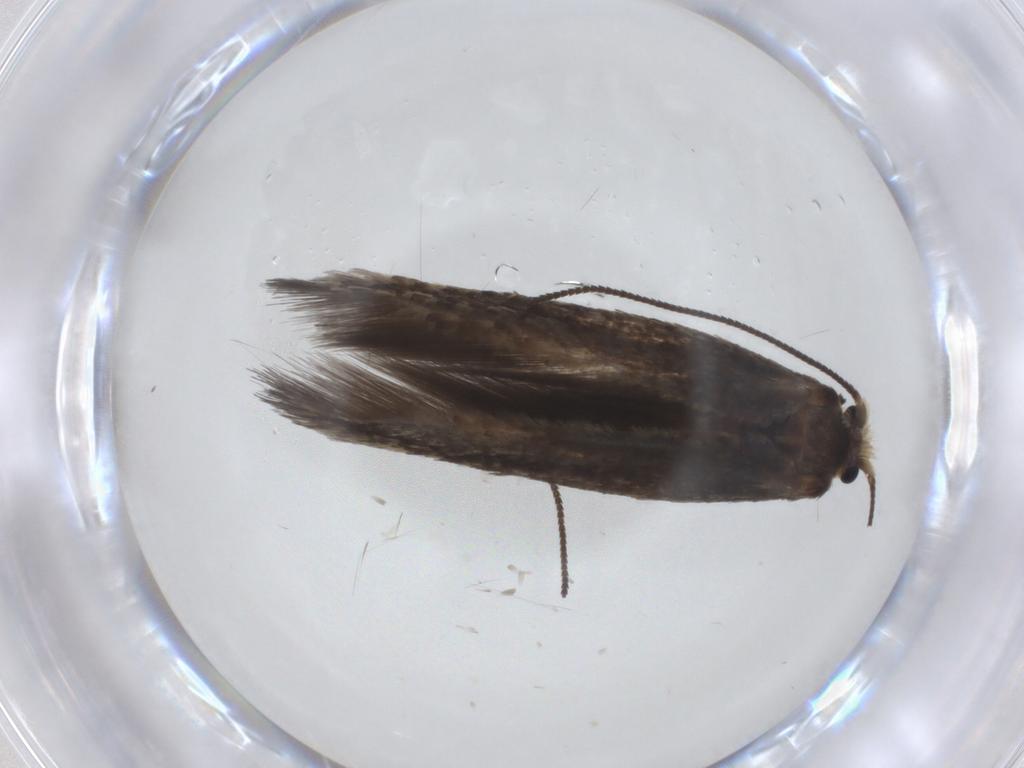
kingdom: Animalia
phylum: Arthropoda
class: Insecta
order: Lepidoptera
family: Nepticulidae
